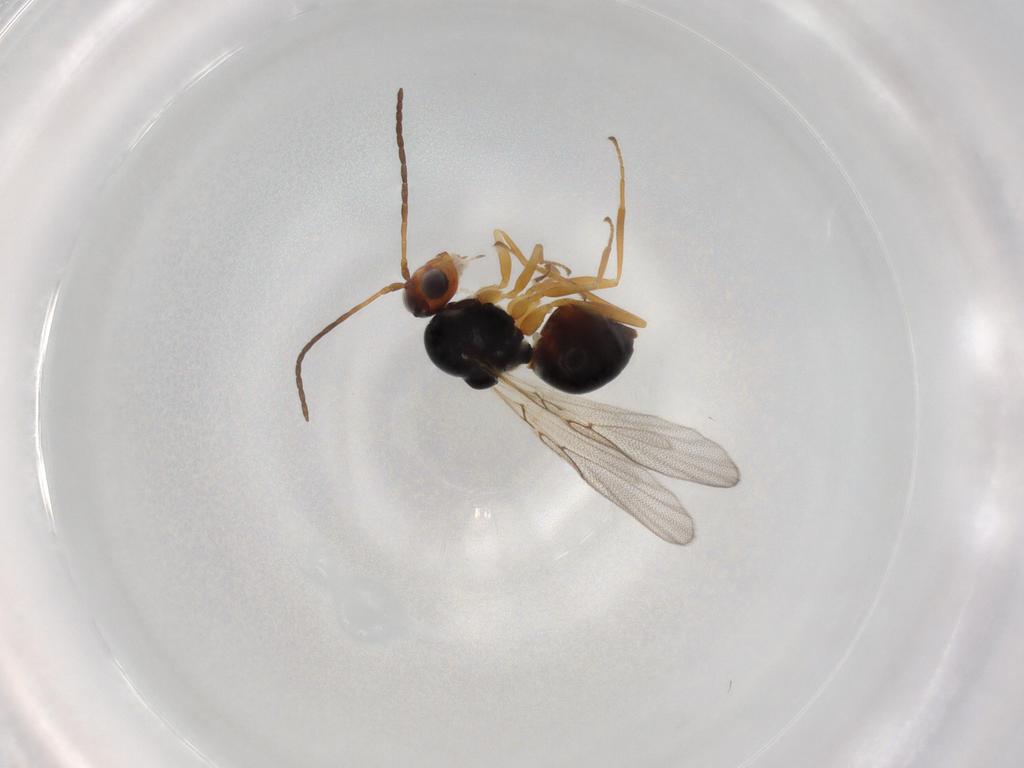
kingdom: Animalia
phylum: Arthropoda
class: Insecta
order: Hymenoptera
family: Figitidae
